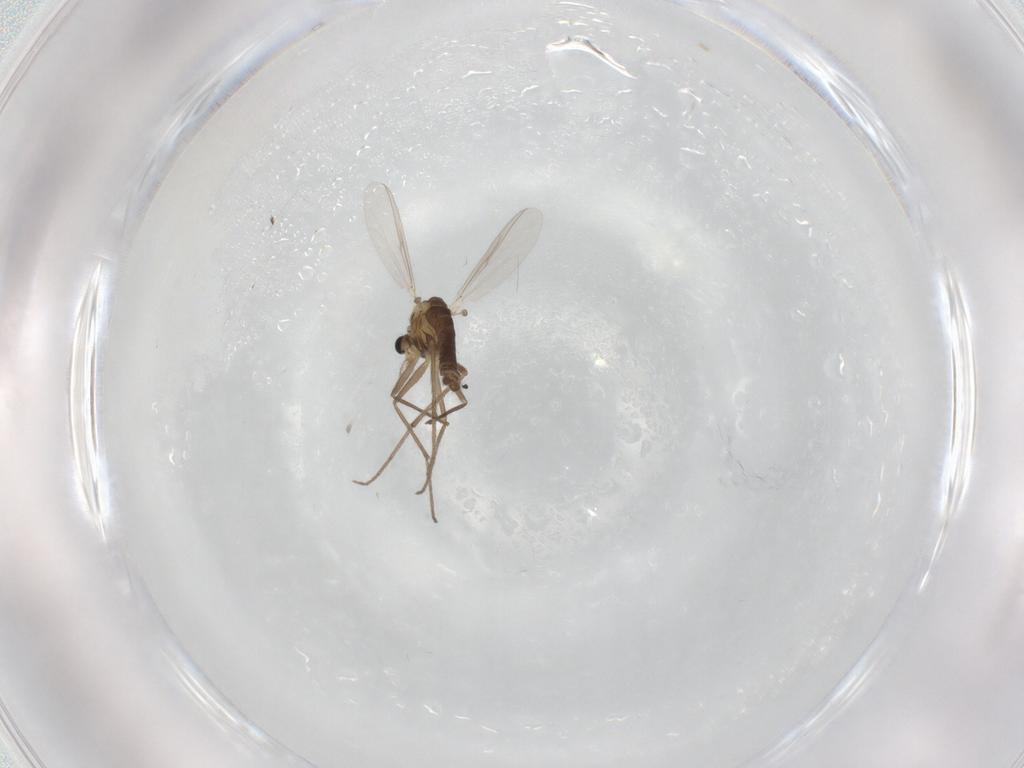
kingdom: Animalia
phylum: Arthropoda
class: Insecta
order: Diptera
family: Chironomidae
